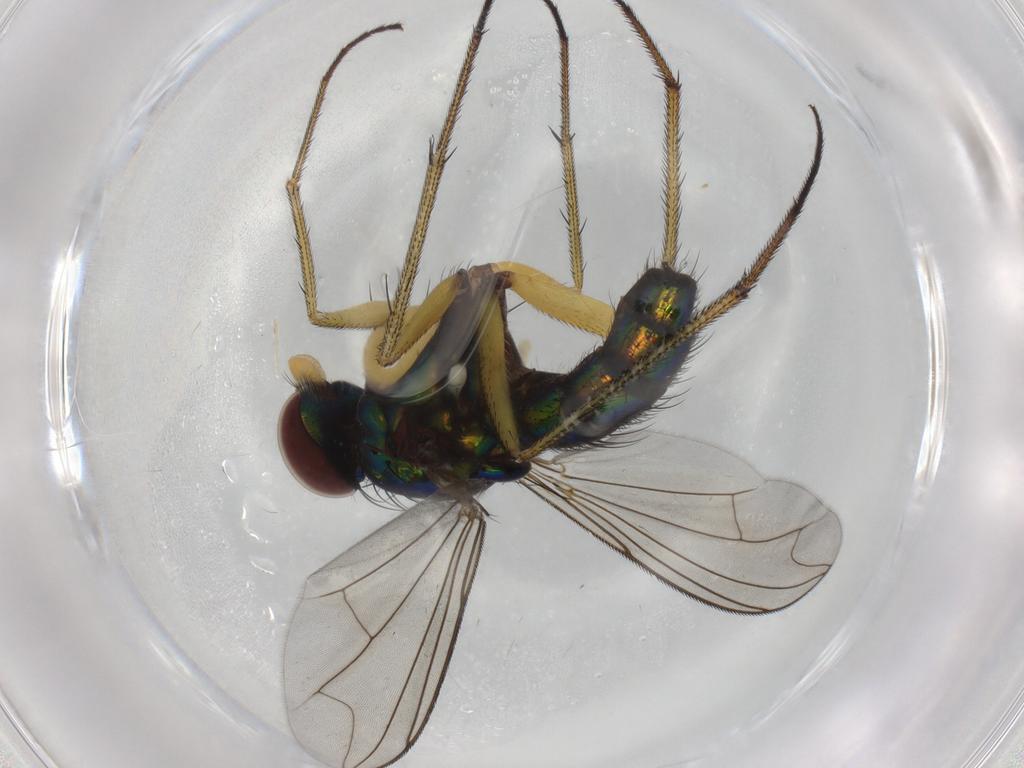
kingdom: Animalia
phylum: Arthropoda
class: Insecta
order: Diptera
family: Dolichopodidae
